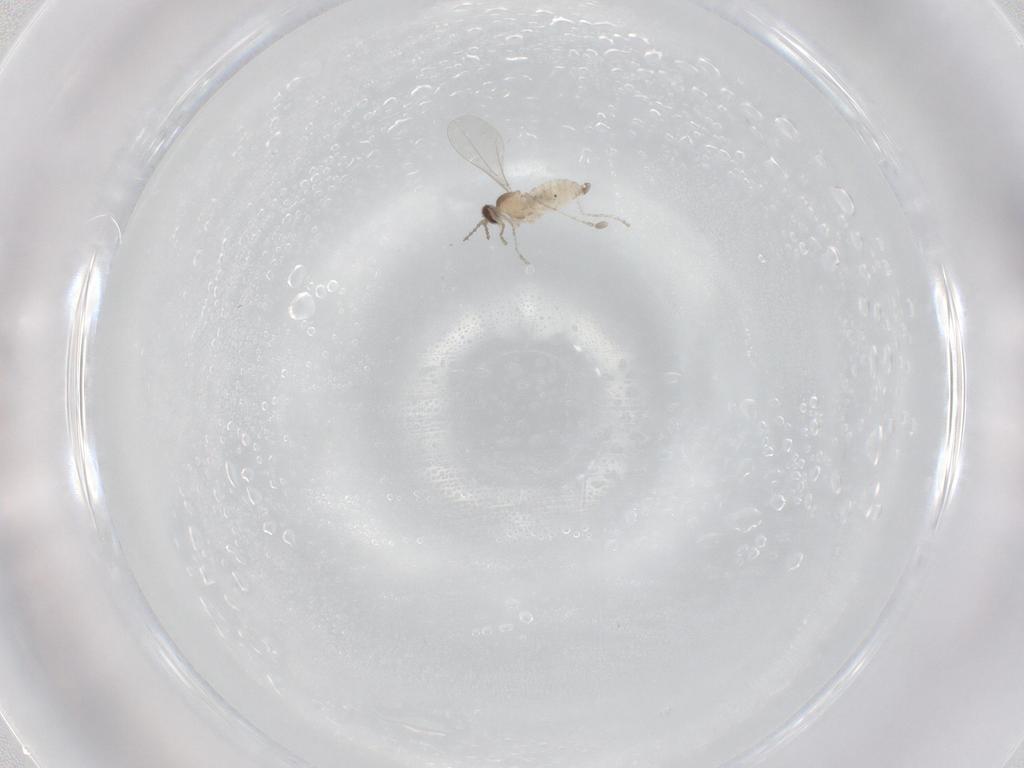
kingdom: Animalia
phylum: Arthropoda
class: Insecta
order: Diptera
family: Cecidomyiidae
